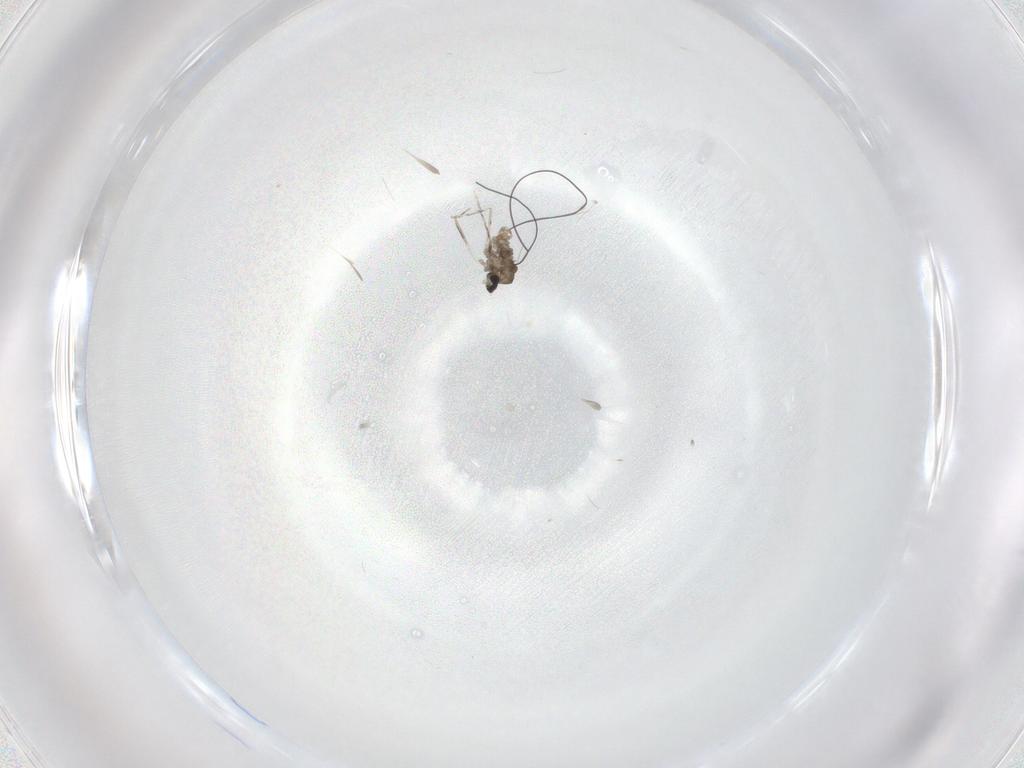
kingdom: Animalia
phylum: Arthropoda
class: Insecta
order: Diptera
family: Cecidomyiidae
